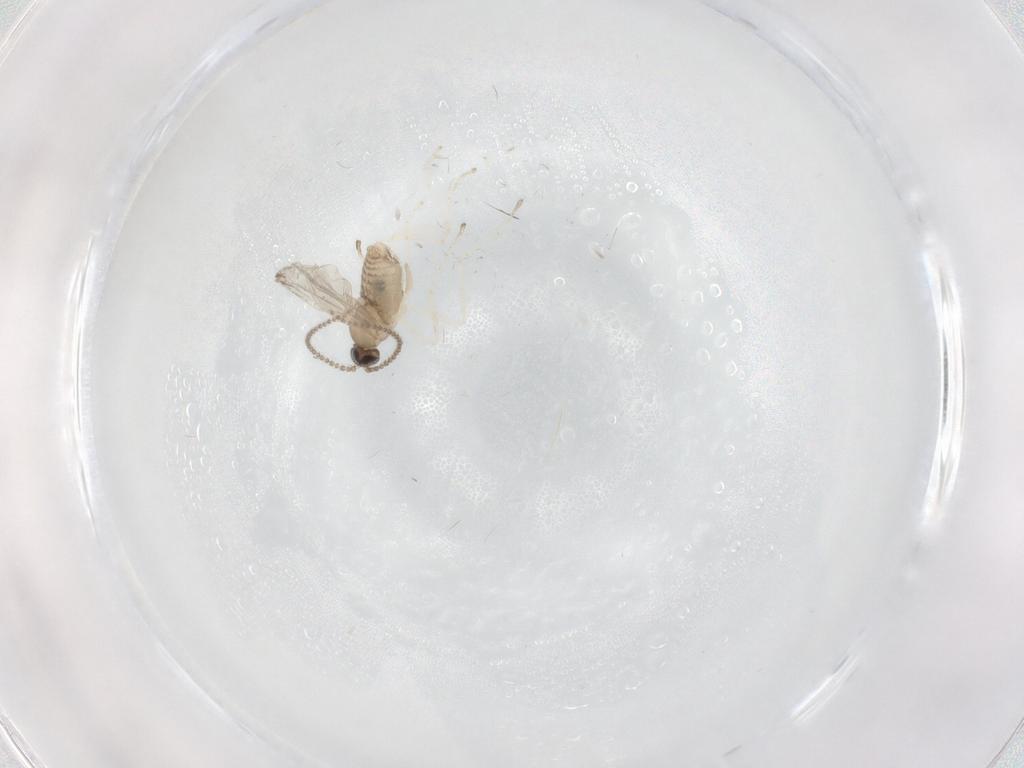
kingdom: Animalia
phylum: Arthropoda
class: Insecta
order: Diptera
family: Cecidomyiidae
